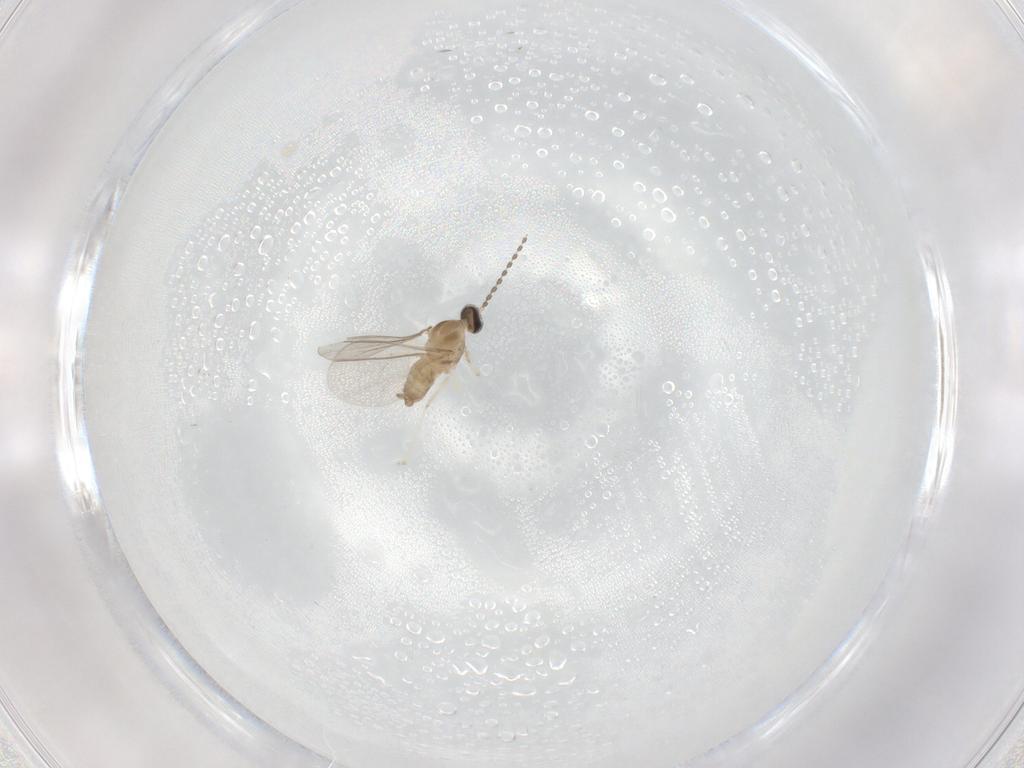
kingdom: Animalia
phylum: Arthropoda
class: Insecta
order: Diptera
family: Cecidomyiidae
